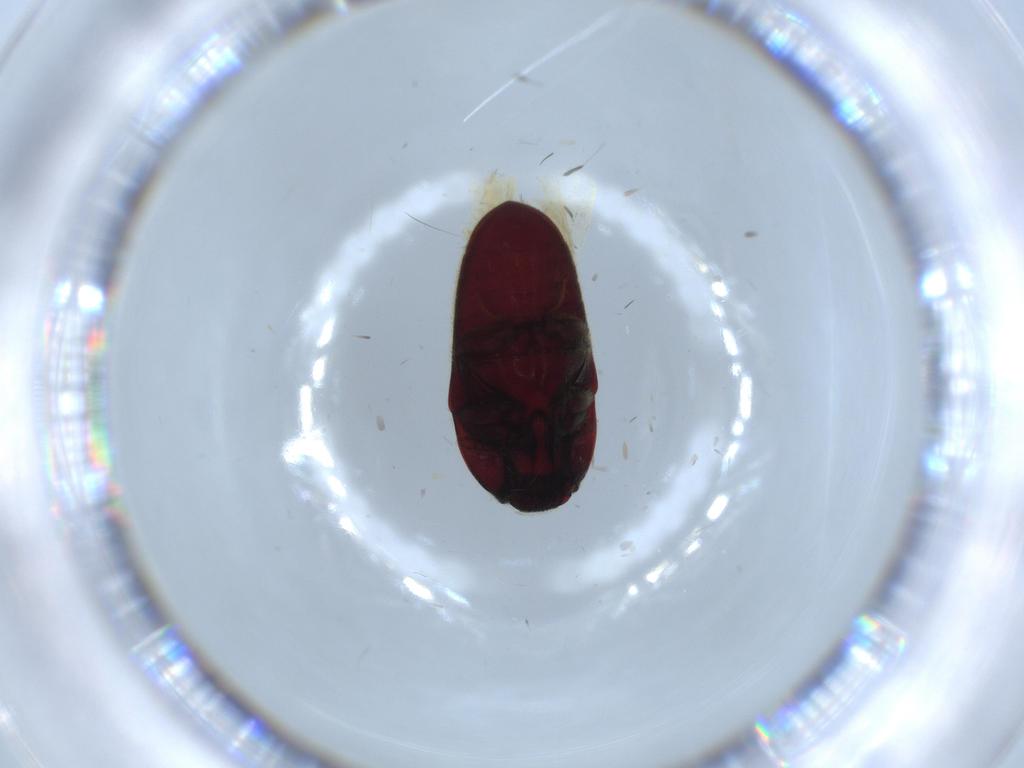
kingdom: Animalia
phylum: Arthropoda
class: Insecta
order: Coleoptera
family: Throscidae
